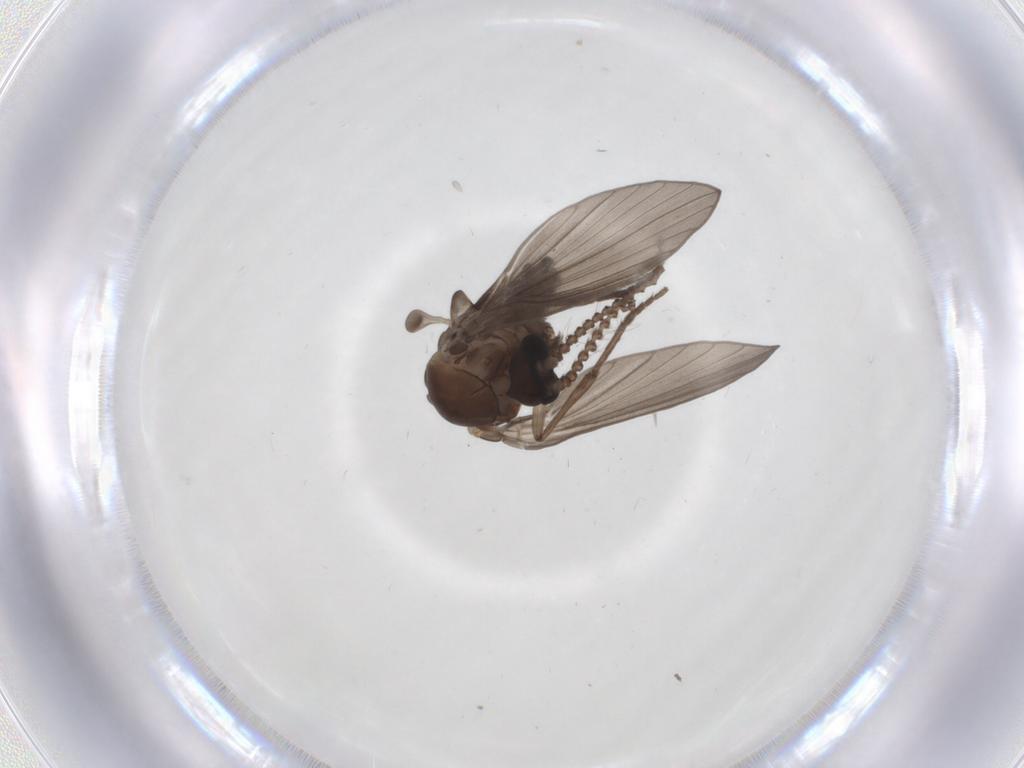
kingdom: Animalia
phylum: Arthropoda
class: Insecta
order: Diptera
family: Psychodidae
